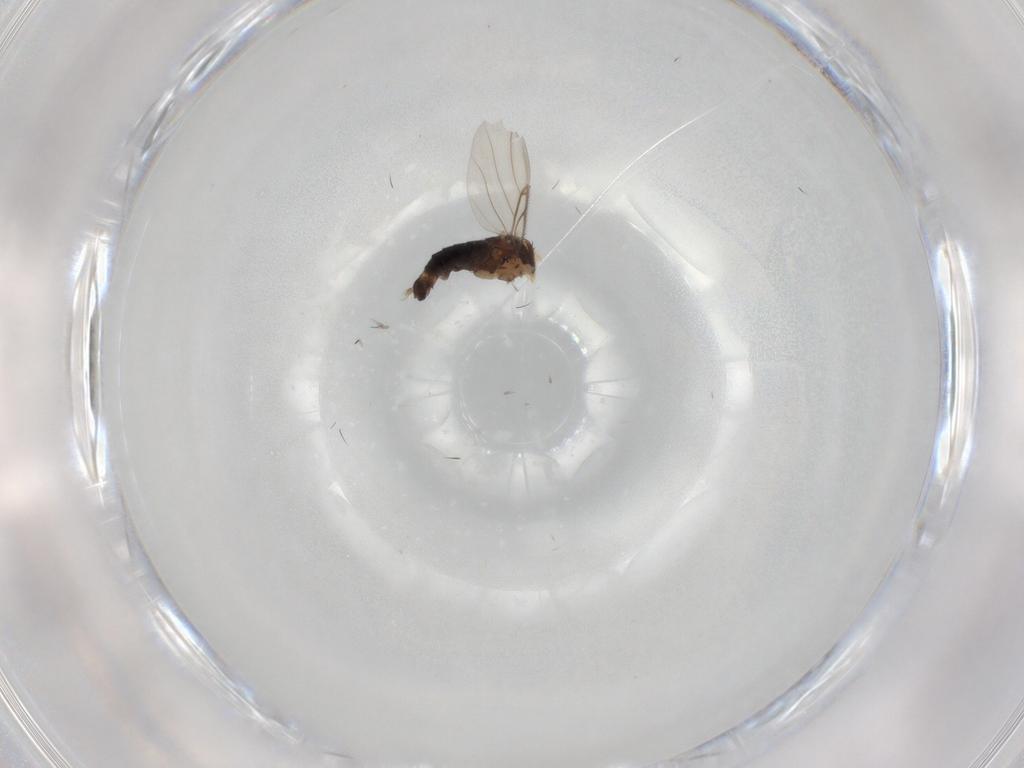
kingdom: Animalia
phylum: Arthropoda
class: Insecta
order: Diptera
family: Phoridae
